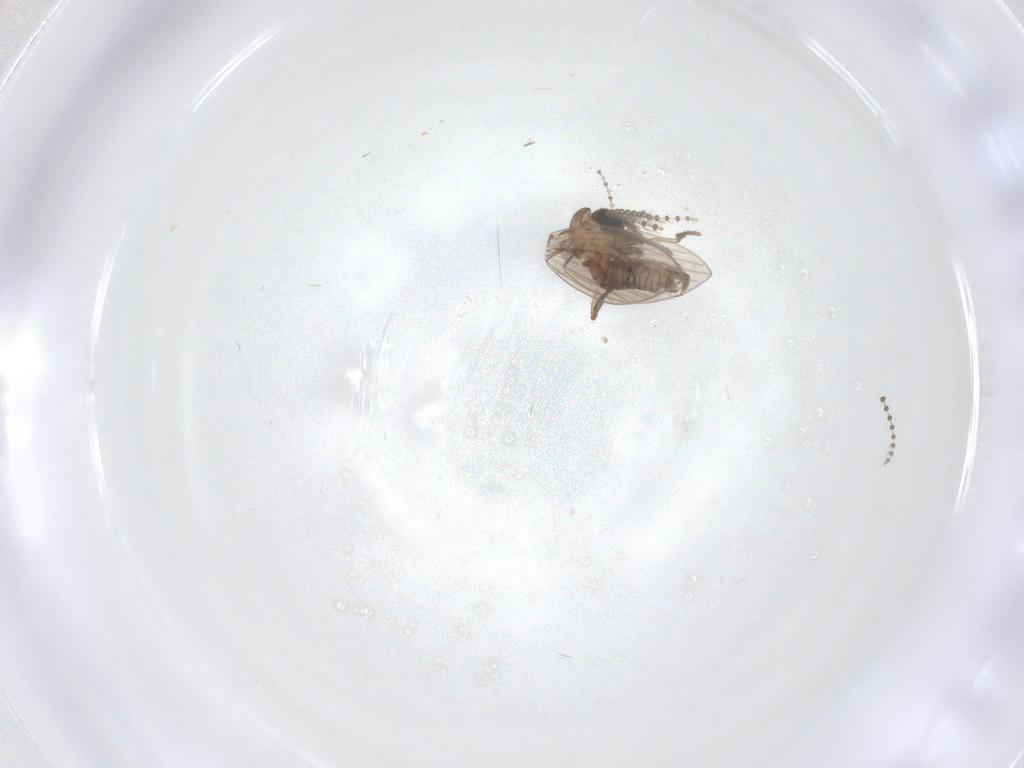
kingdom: Animalia
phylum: Arthropoda
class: Insecta
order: Diptera
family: Psychodidae
